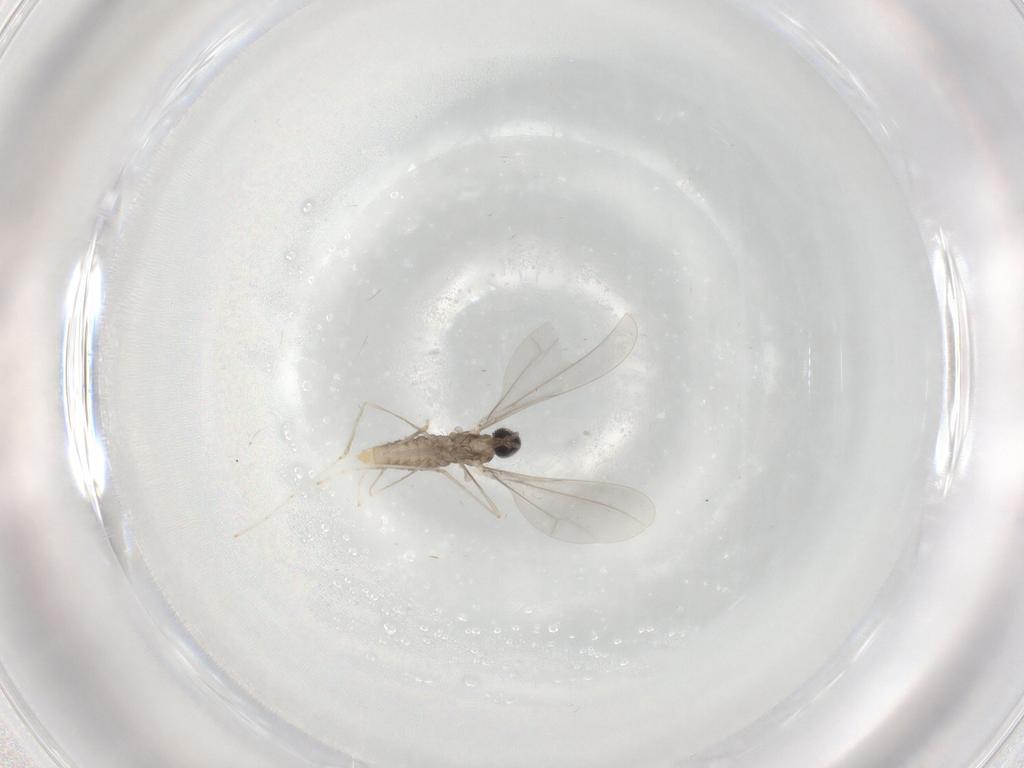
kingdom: Animalia
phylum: Arthropoda
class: Insecta
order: Diptera
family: Cecidomyiidae
